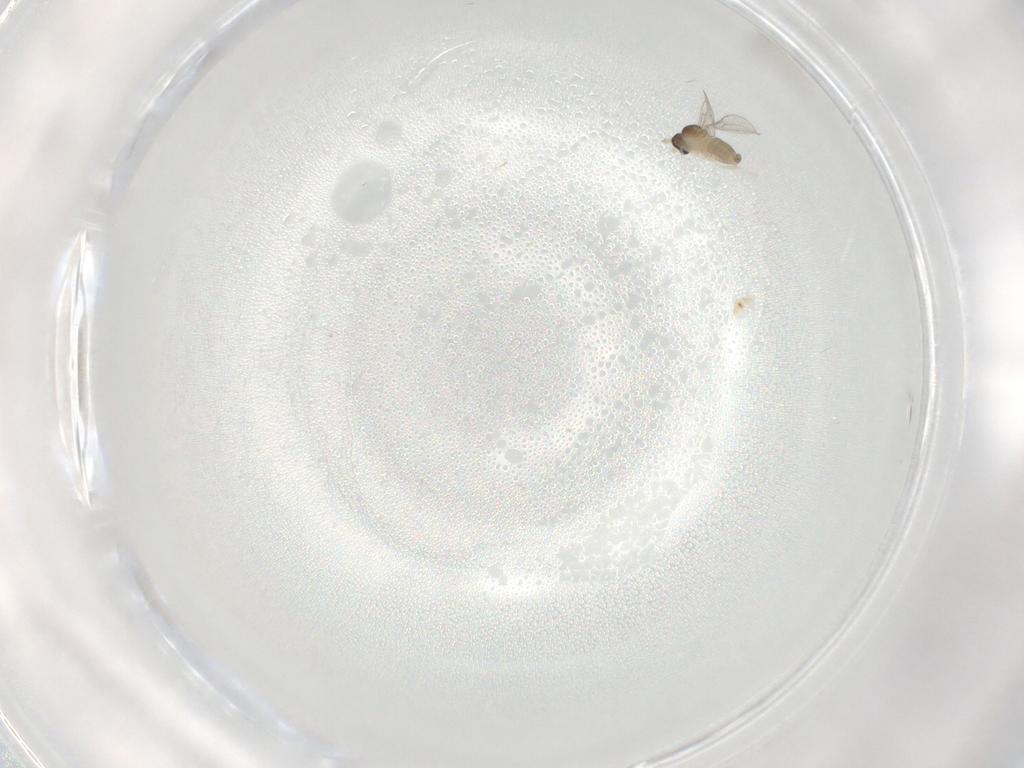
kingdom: Animalia
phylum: Arthropoda
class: Insecta
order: Diptera
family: Cecidomyiidae
